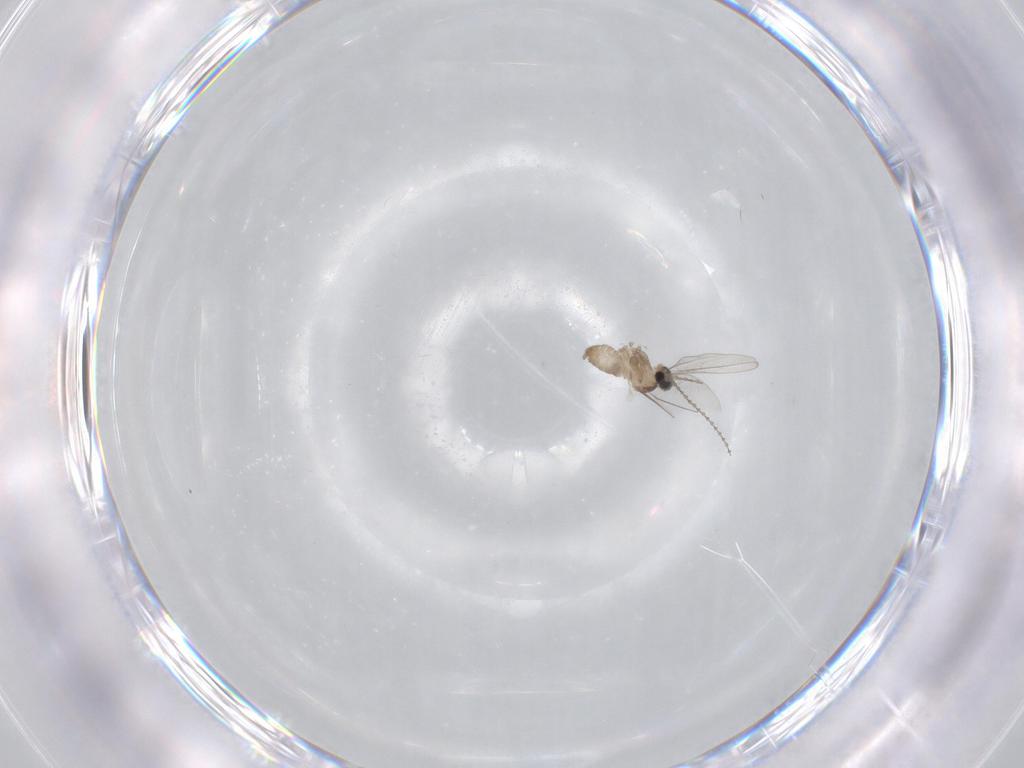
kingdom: Animalia
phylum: Arthropoda
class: Insecta
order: Diptera
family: Cecidomyiidae
